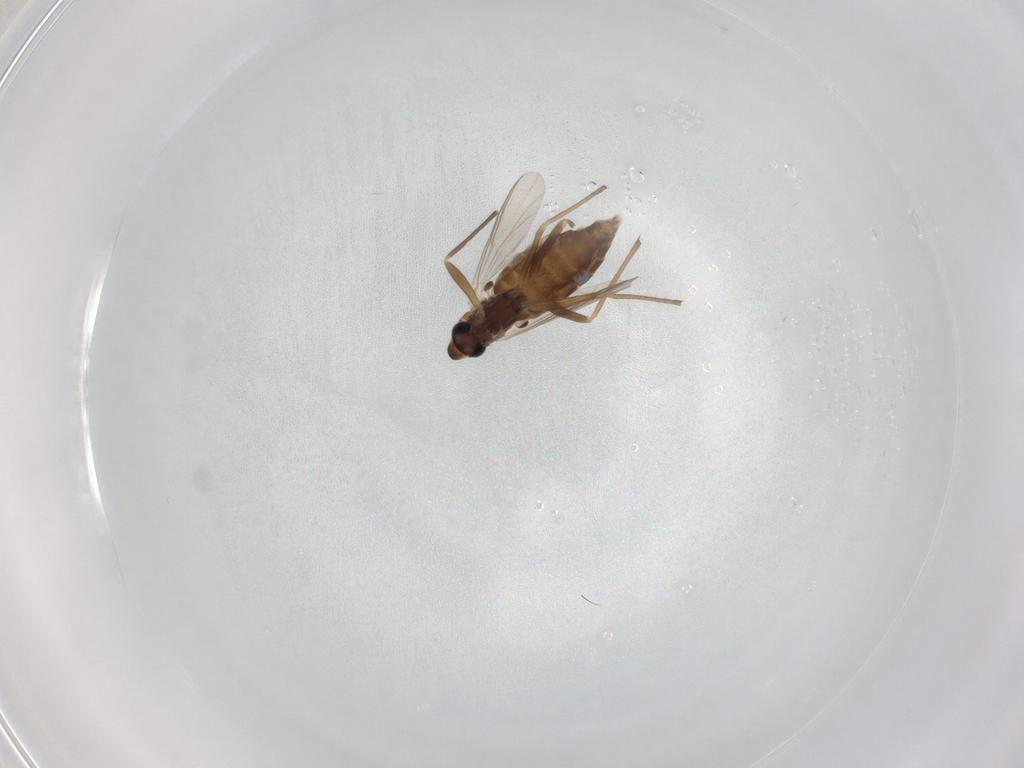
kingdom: Animalia
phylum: Arthropoda
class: Insecta
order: Diptera
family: Chironomidae
